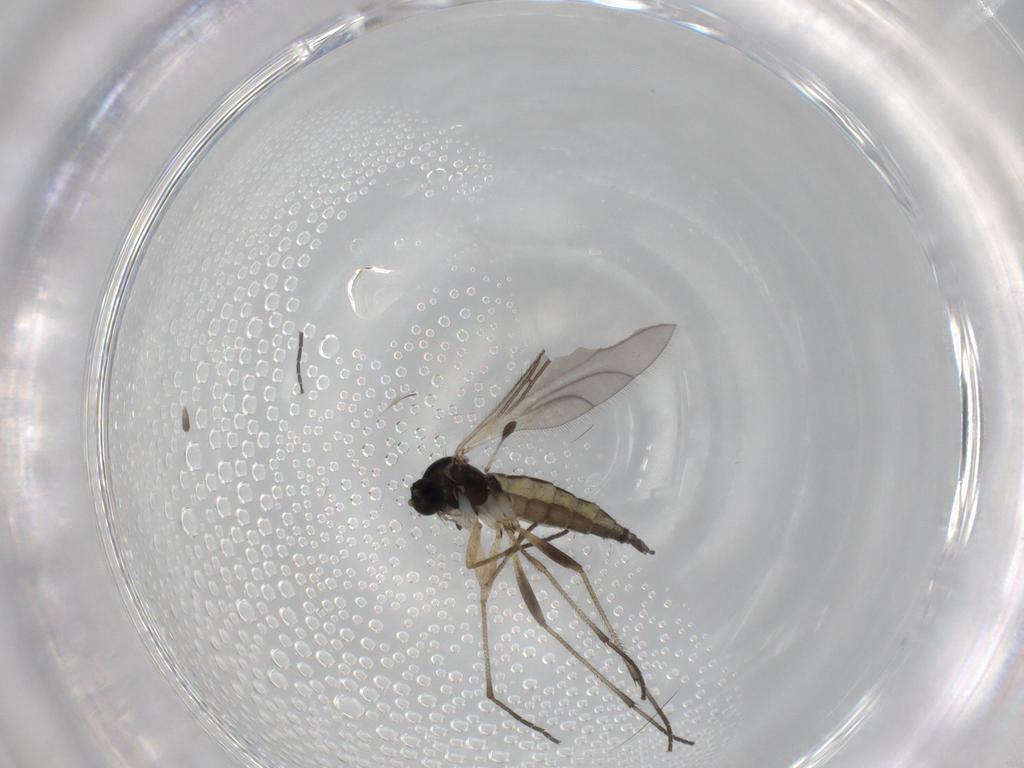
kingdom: Animalia
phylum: Arthropoda
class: Insecta
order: Diptera
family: Sciaridae
